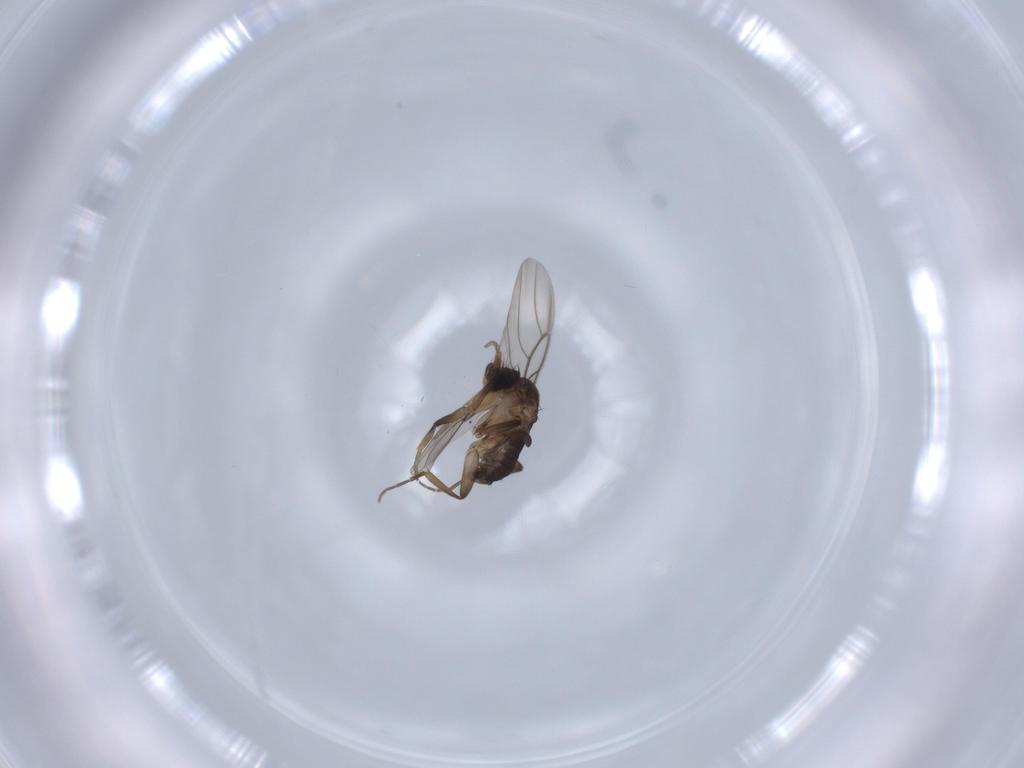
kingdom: Animalia
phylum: Arthropoda
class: Insecta
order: Diptera
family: Phoridae
